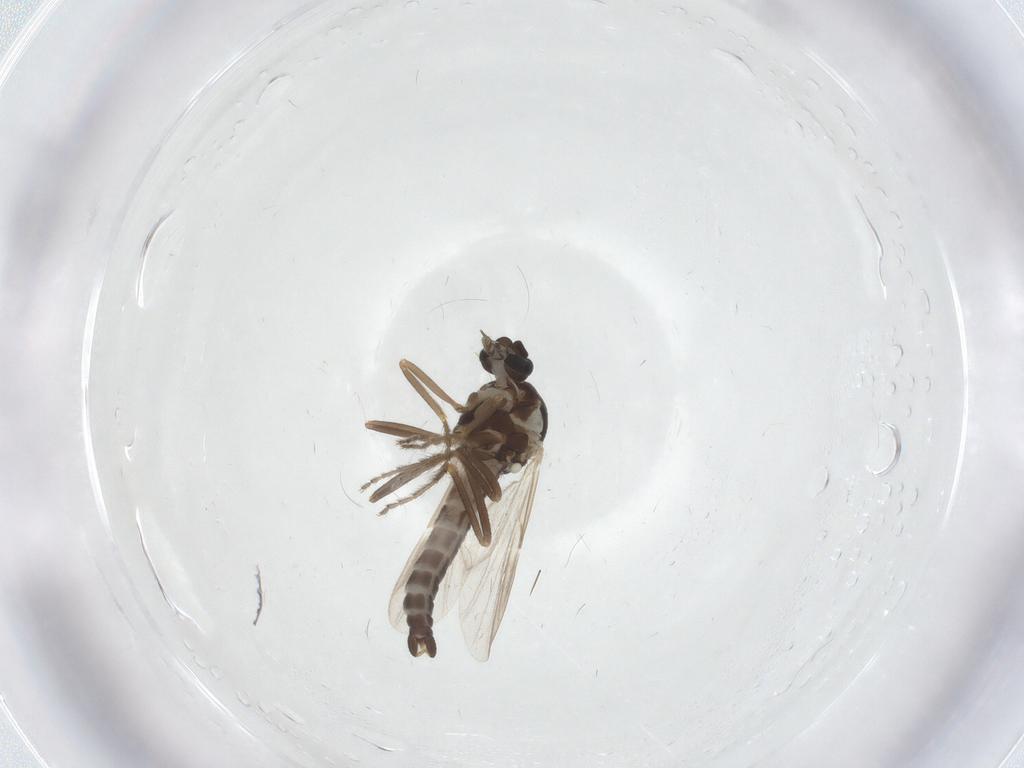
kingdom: Animalia
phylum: Arthropoda
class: Insecta
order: Diptera
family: Ceratopogonidae
